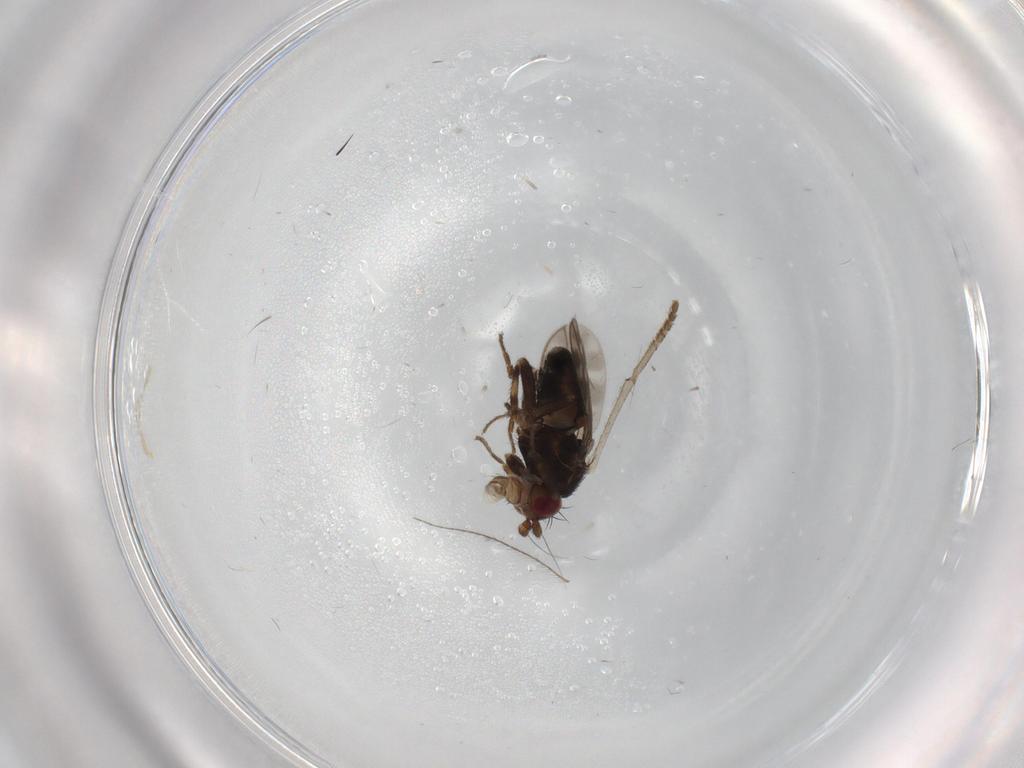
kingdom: Animalia
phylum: Arthropoda
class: Insecta
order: Diptera
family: Sphaeroceridae
